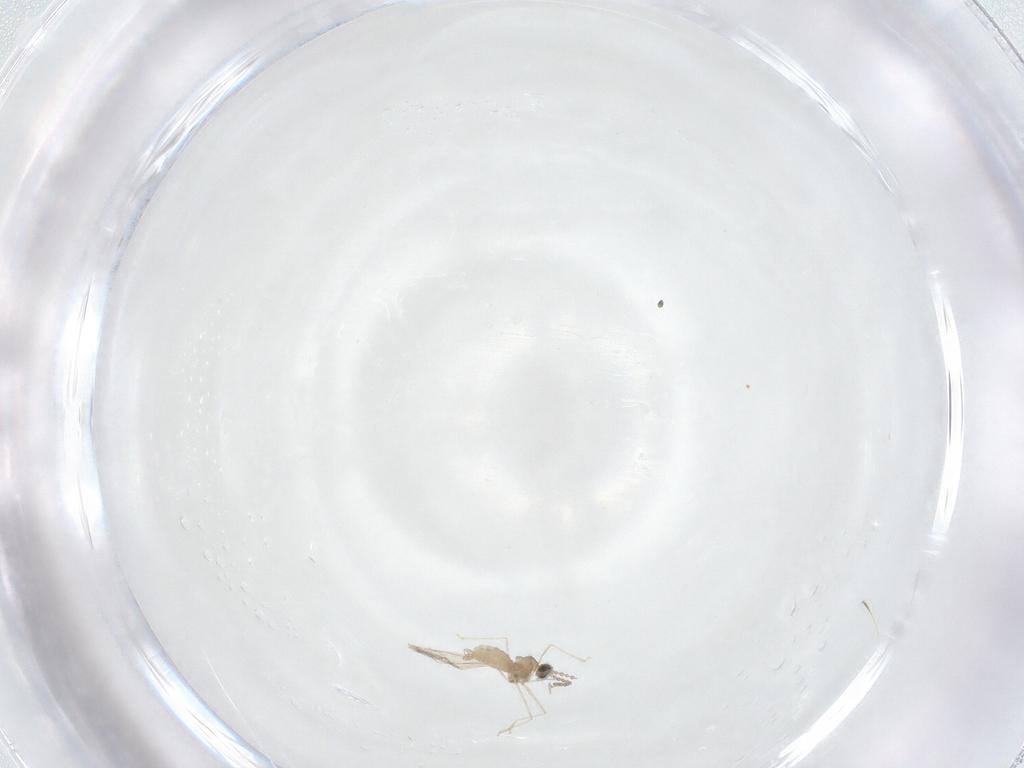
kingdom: Animalia
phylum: Arthropoda
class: Insecta
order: Diptera
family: Cecidomyiidae
